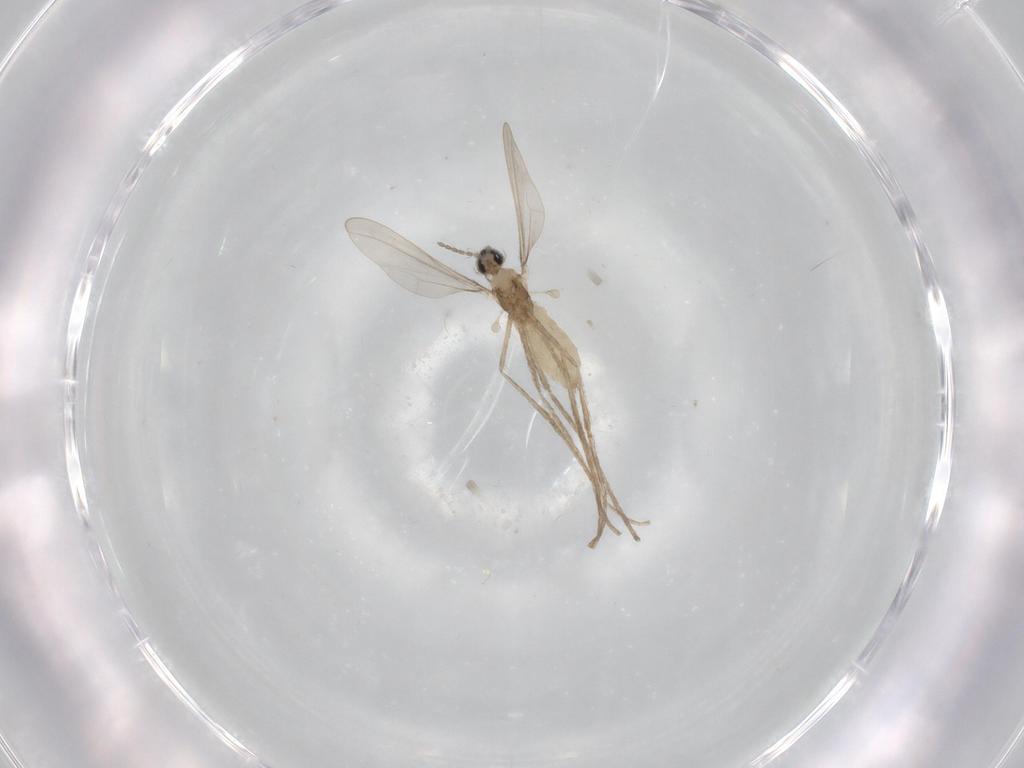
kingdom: Animalia
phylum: Arthropoda
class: Insecta
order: Diptera
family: Cecidomyiidae
